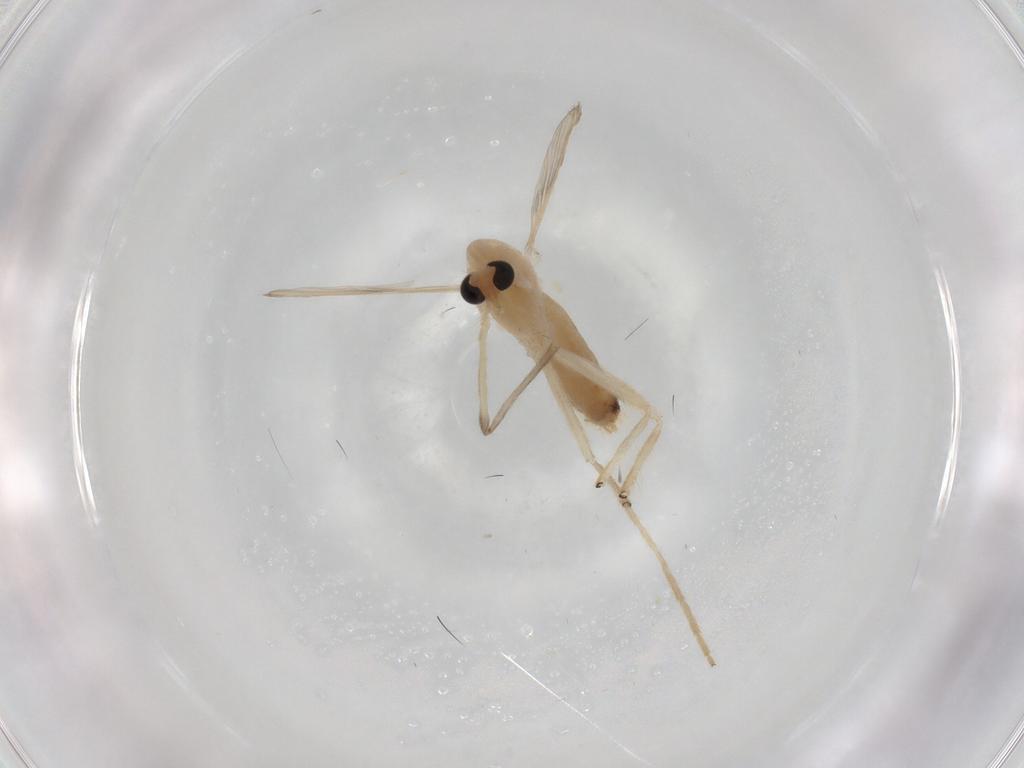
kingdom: Animalia
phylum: Arthropoda
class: Insecta
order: Diptera
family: Chironomidae
